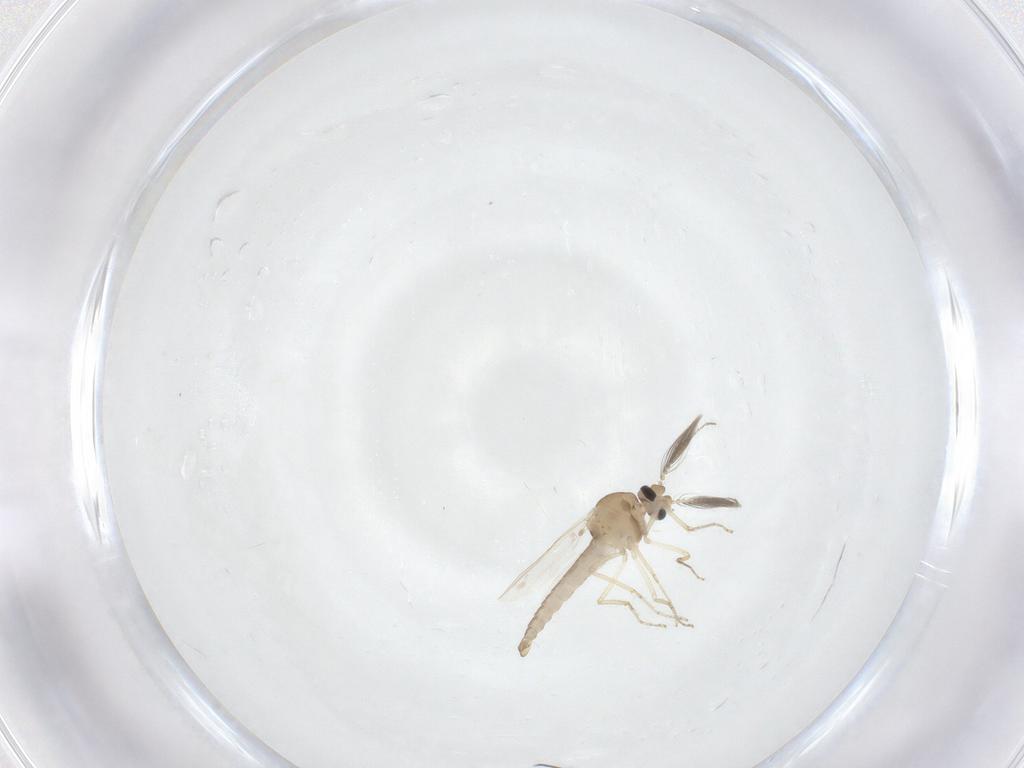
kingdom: Animalia
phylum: Arthropoda
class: Insecta
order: Diptera
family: Ceratopogonidae
